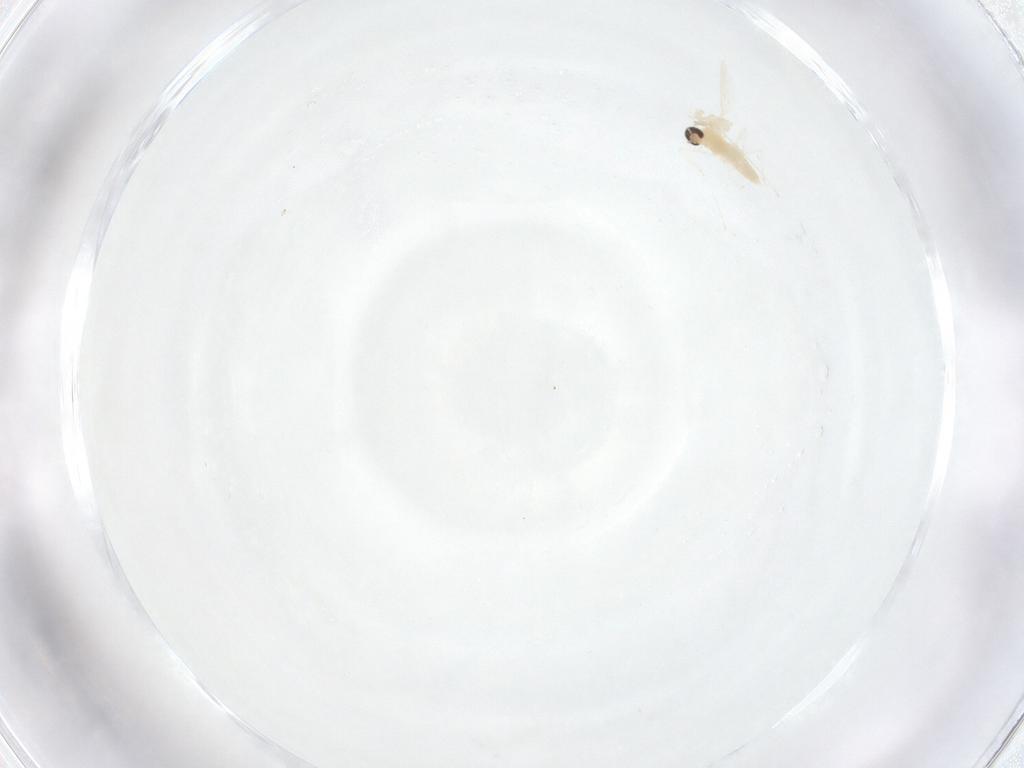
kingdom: Animalia
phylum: Arthropoda
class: Insecta
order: Diptera
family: Cecidomyiidae
